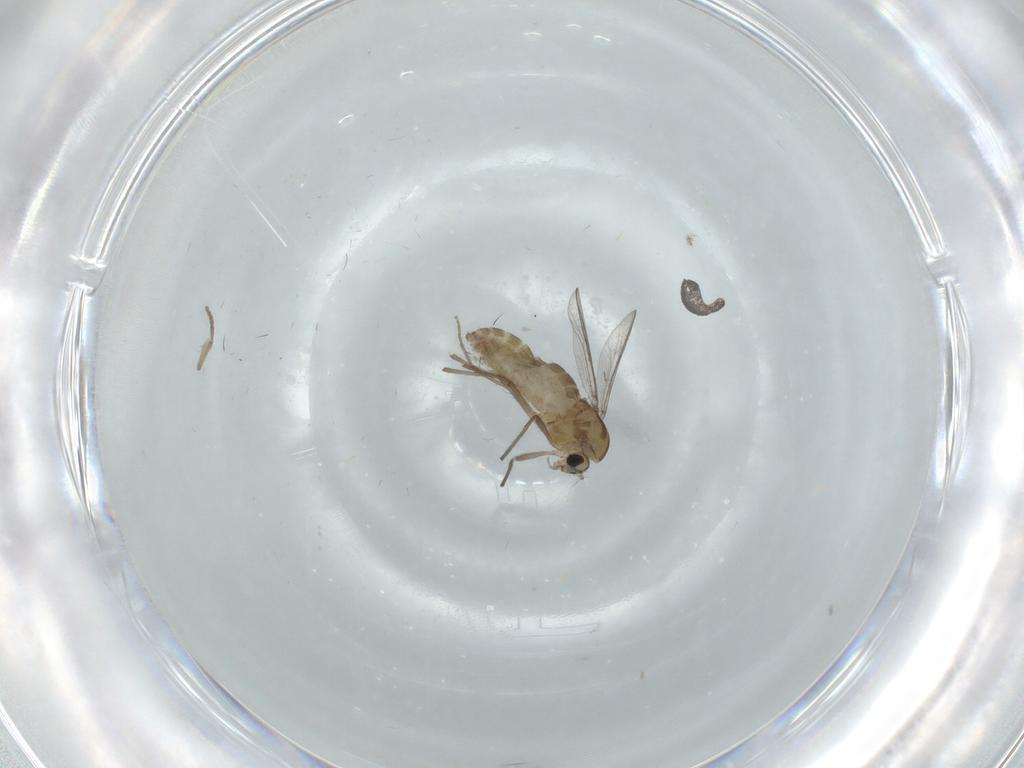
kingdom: Animalia
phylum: Arthropoda
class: Insecta
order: Diptera
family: Chironomidae
